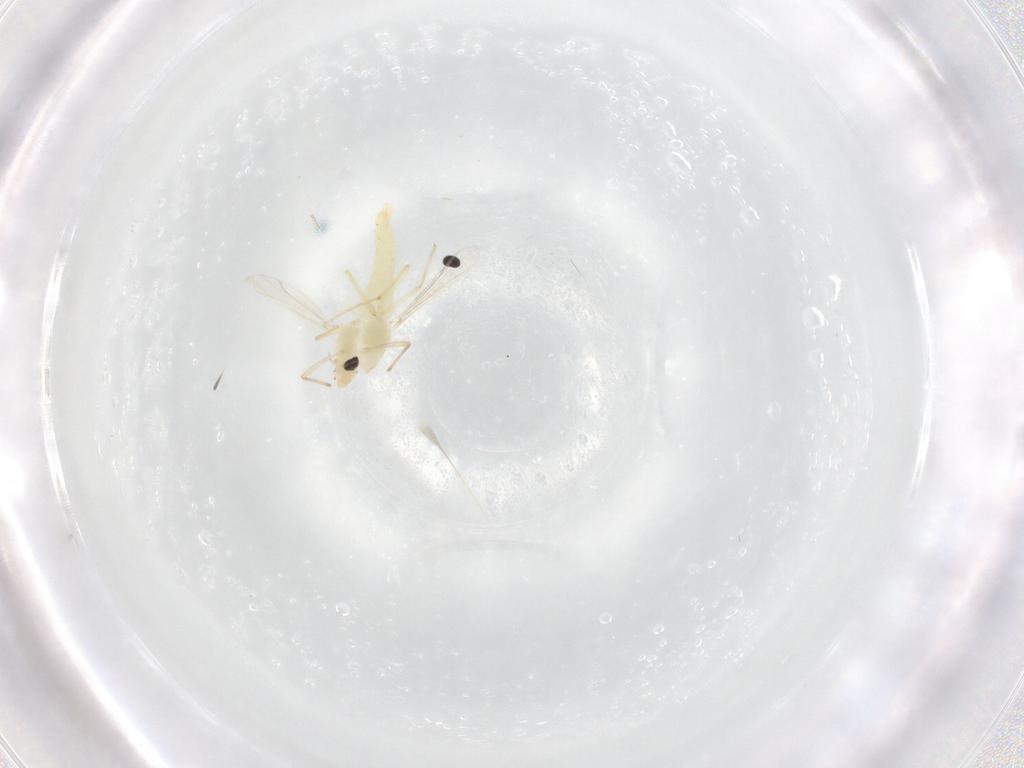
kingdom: Animalia
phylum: Arthropoda
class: Insecta
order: Diptera
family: Chironomidae
